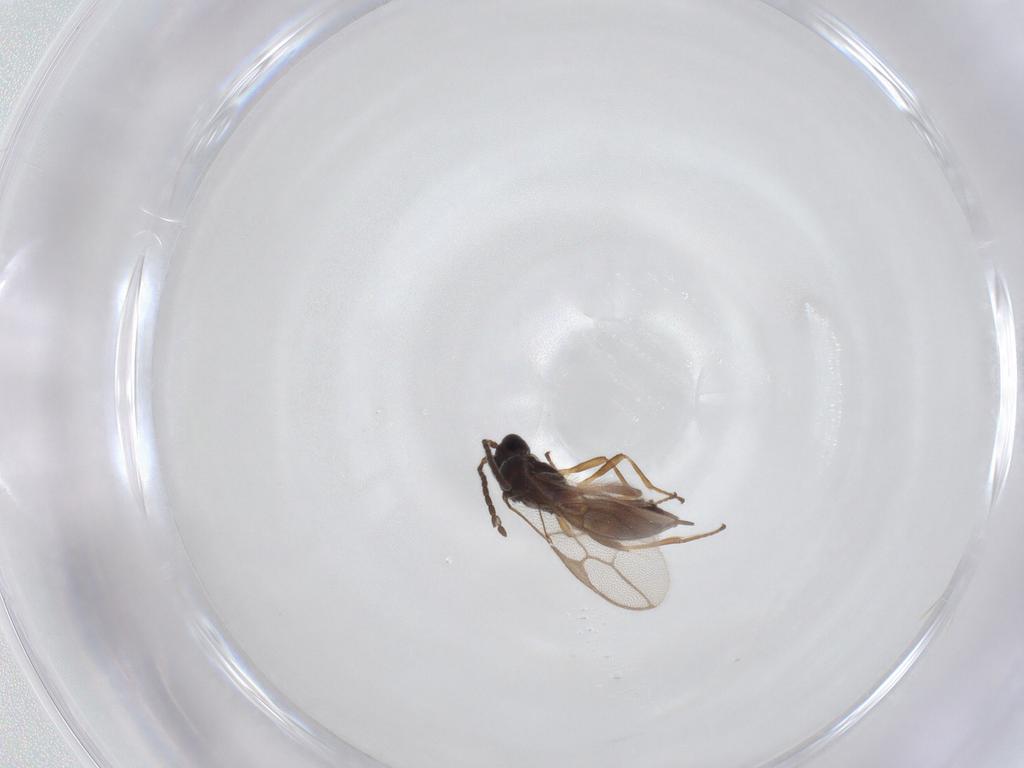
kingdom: Animalia
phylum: Arthropoda
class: Insecta
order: Hymenoptera
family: Braconidae
